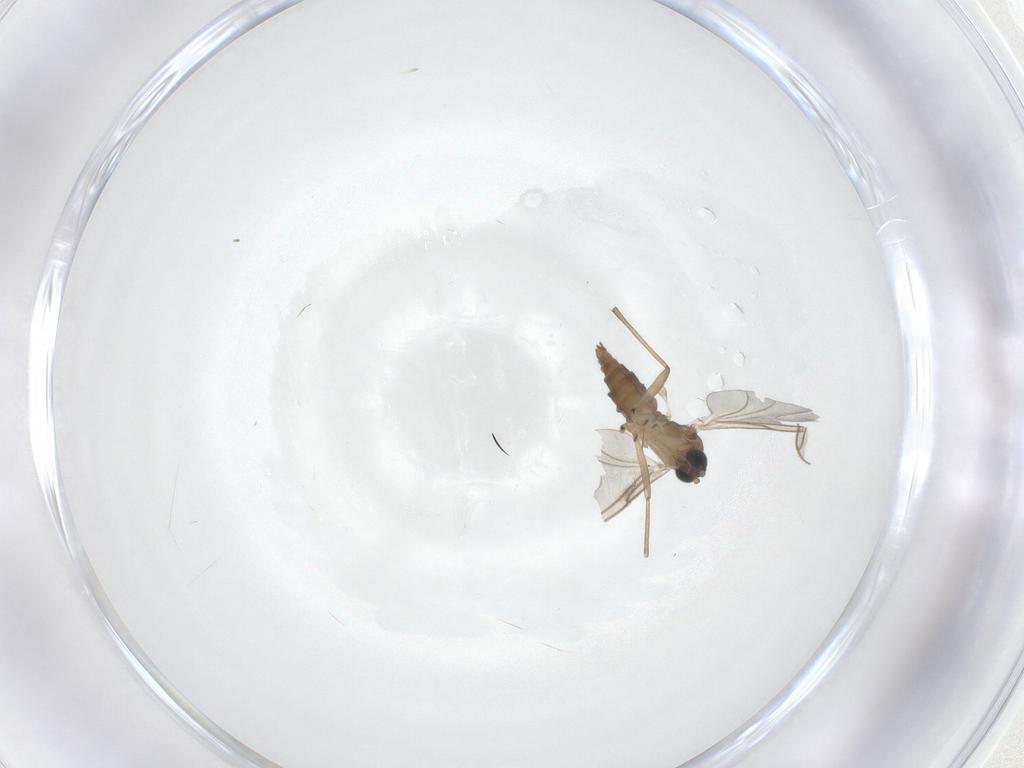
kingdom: Animalia
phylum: Arthropoda
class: Insecta
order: Diptera
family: Sciaridae
